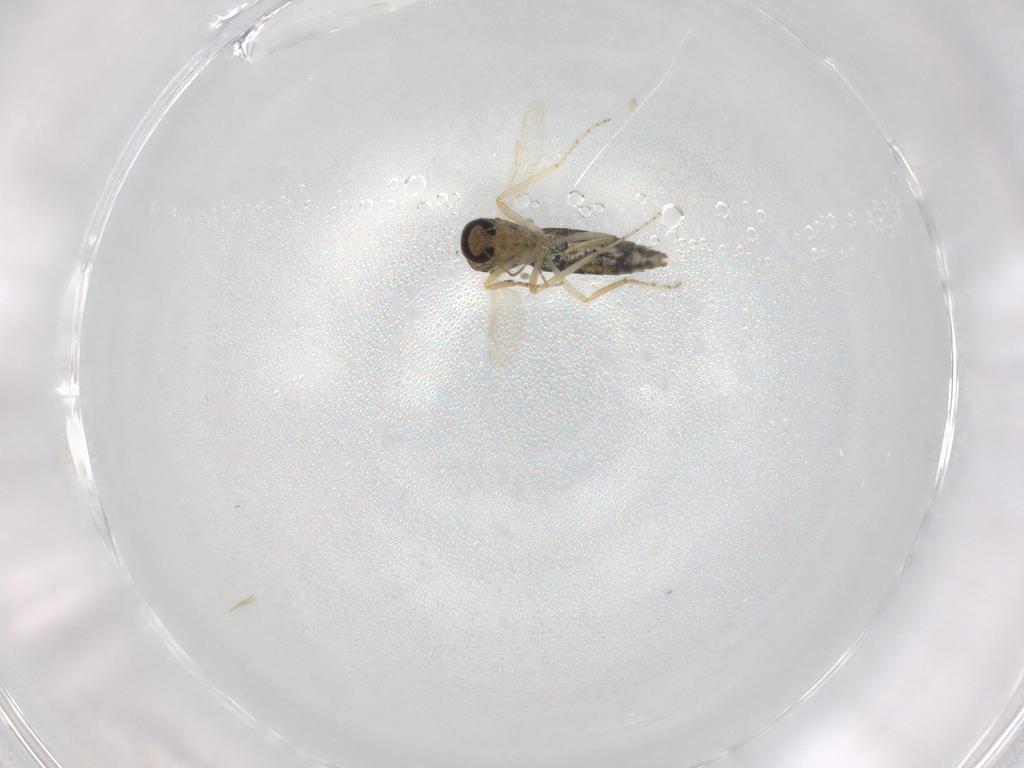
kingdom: Animalia
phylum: Arthropoda
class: Insecta
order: Diptera
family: Ceratopogonidae
